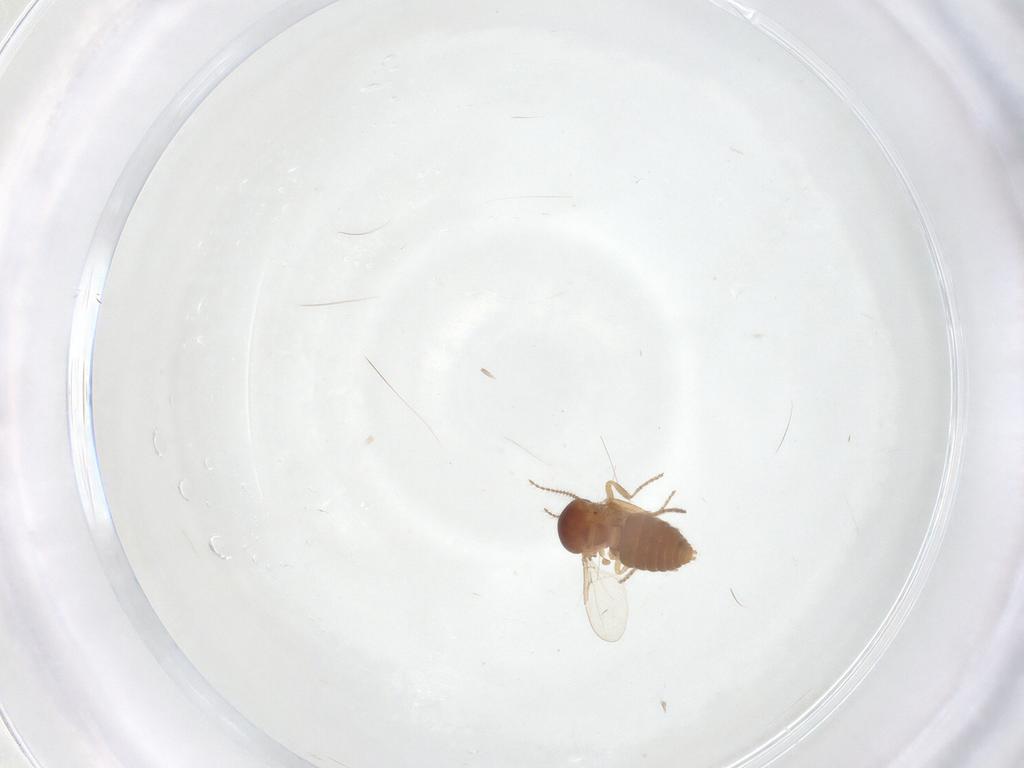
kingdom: Animalia
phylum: Arthropoda
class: Insecta
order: Diptera
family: Ceratopogonidae
